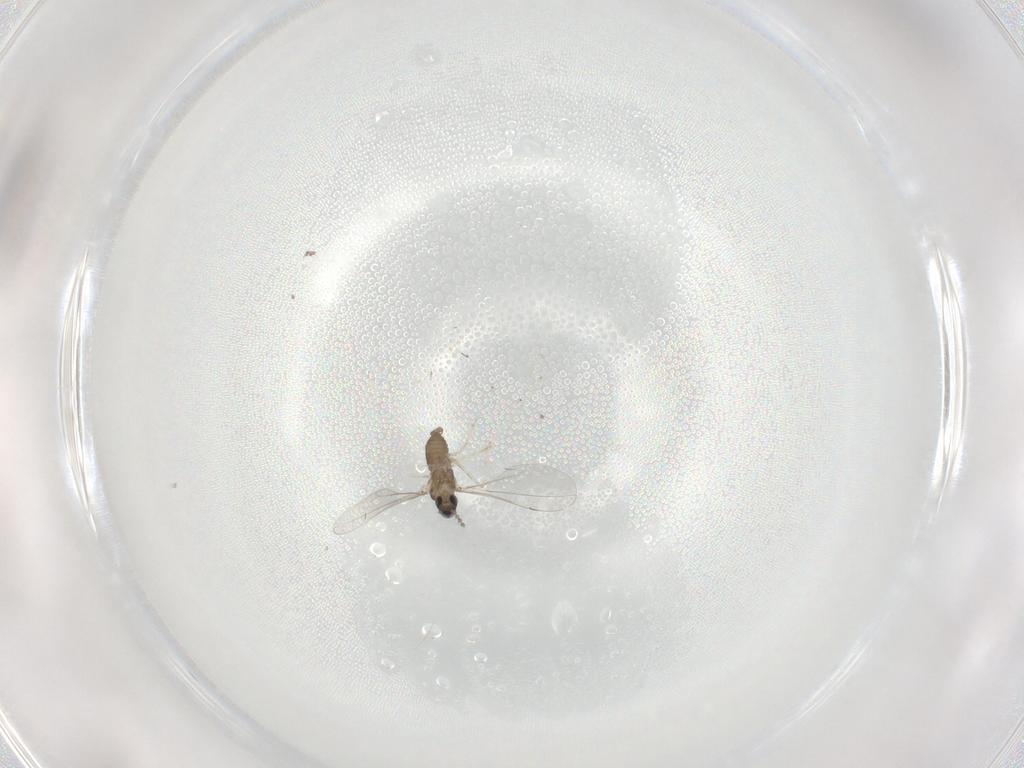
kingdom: Animalia
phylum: Arthropoda
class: Insecta
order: Diptera
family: Cecidomyiidae
